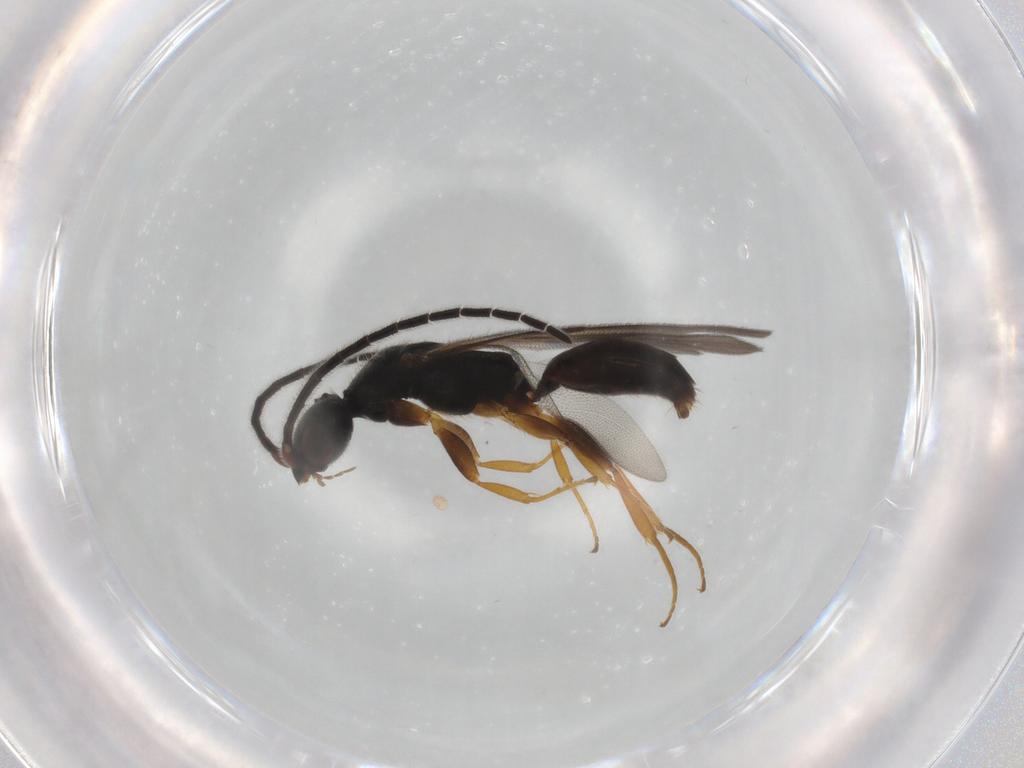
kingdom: Animalia
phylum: Arthropoda
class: Insecta
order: Hymenoptera
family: Bethylidae
